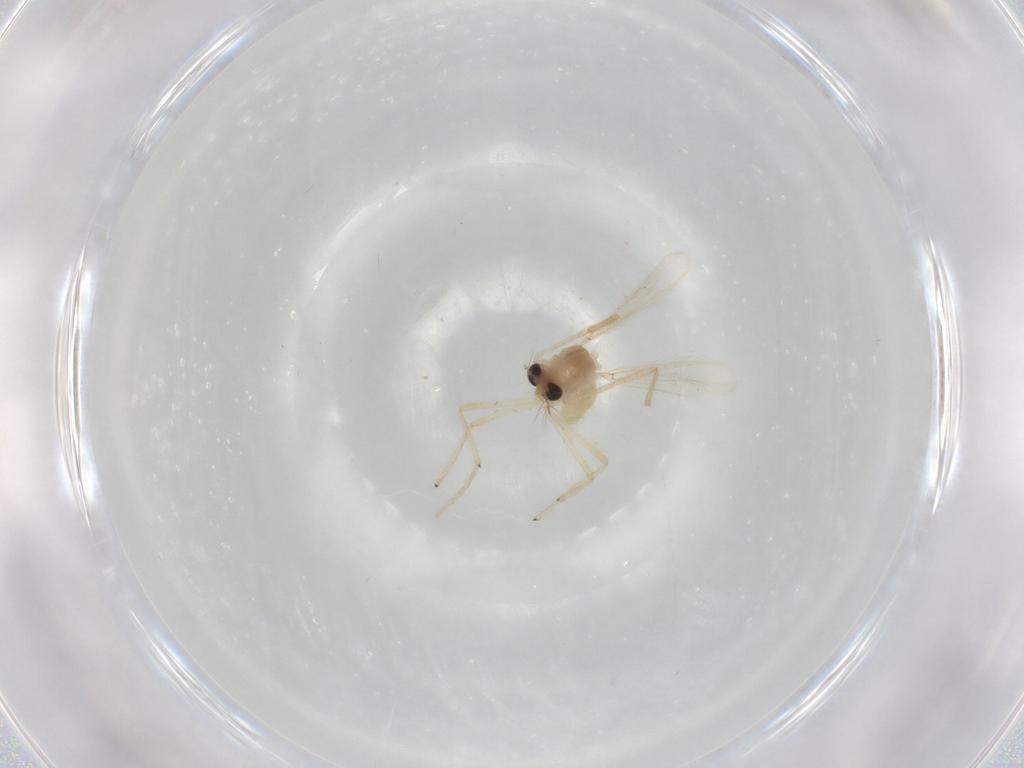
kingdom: Animalia
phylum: Arthropoda
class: Insecta
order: Diptera
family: Chironomidae
